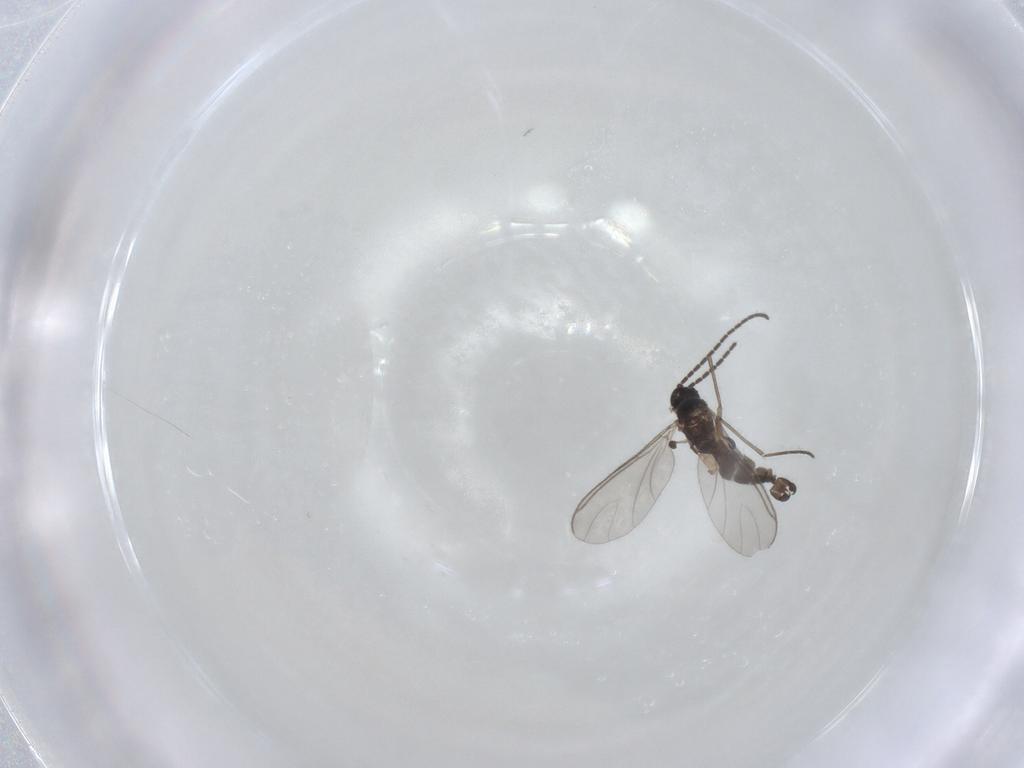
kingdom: Animalia
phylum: Arthropoda
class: Insecta
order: Diptera
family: Sciaridae
